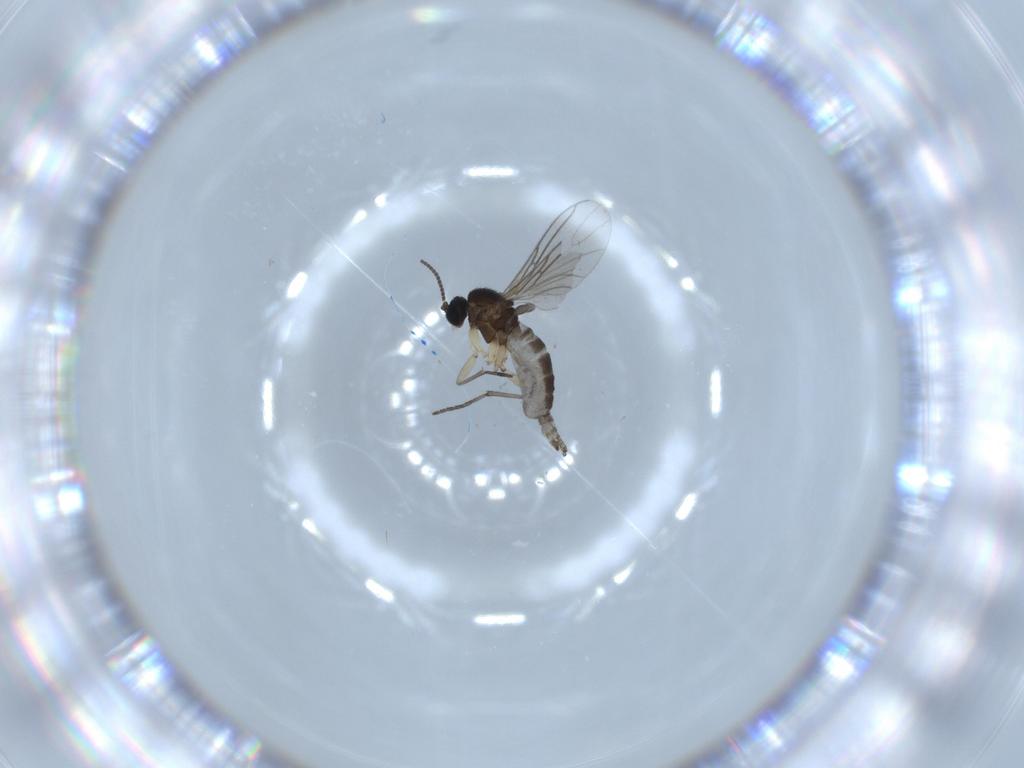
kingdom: Animalia
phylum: Arthropoda
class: Insecta
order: Diptera
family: Sciaridae
